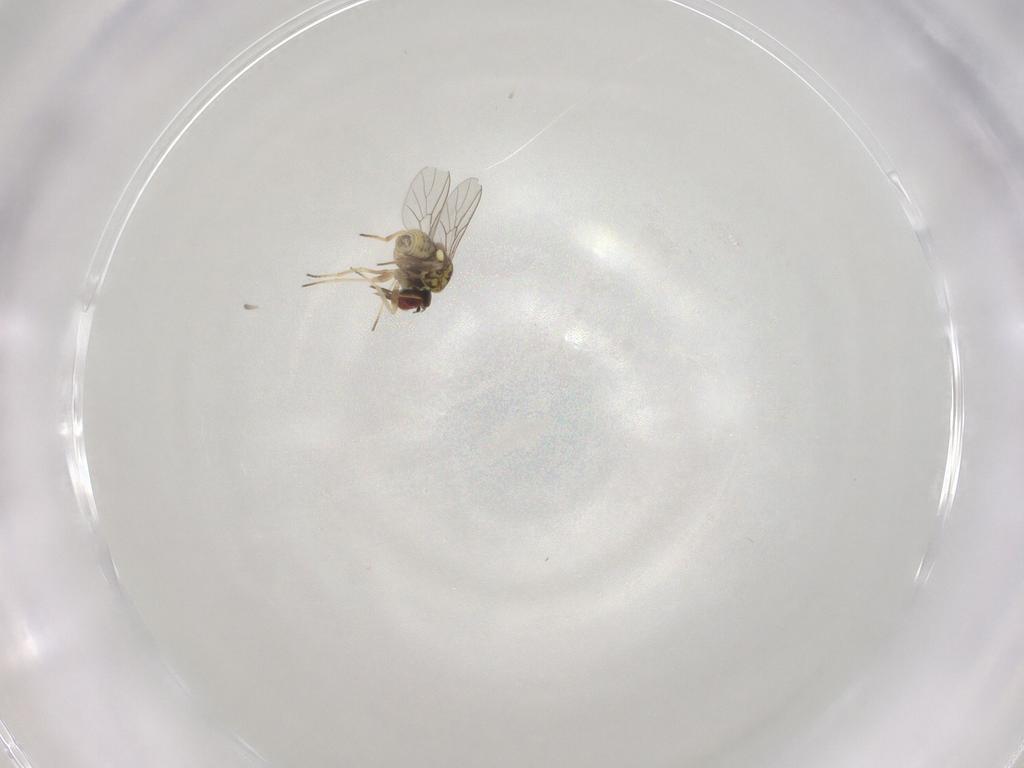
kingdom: Animalia
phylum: Arthropoda
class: Insecta
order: Diptera
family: Mythicomyiidae
